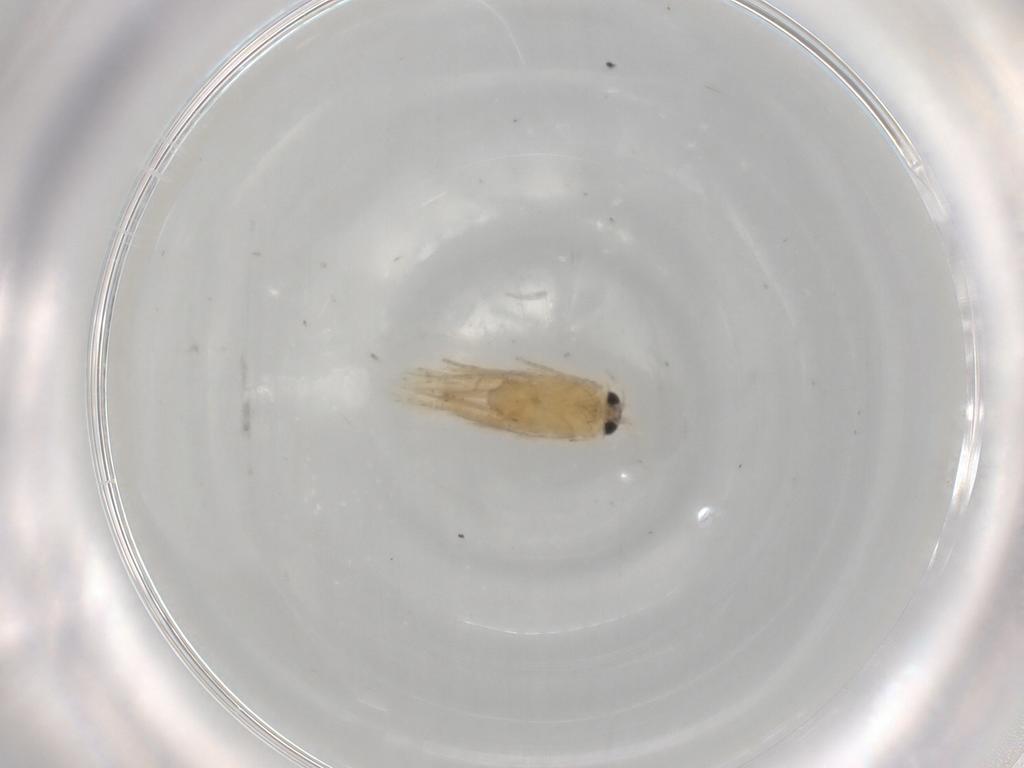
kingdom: Animalia
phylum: Arthropoda
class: Insecta
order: Lepidoptera
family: Nepticulidae
